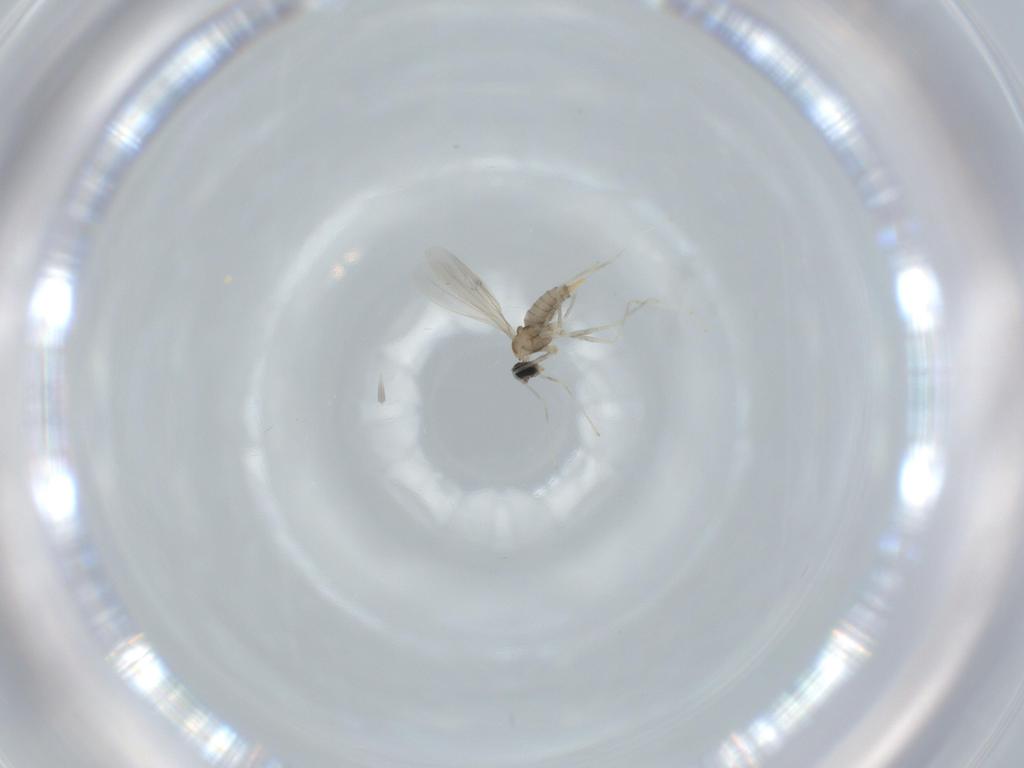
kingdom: Animalia
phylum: Arthropoda
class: Insecta
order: Diptera
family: Cecidomyiidae
